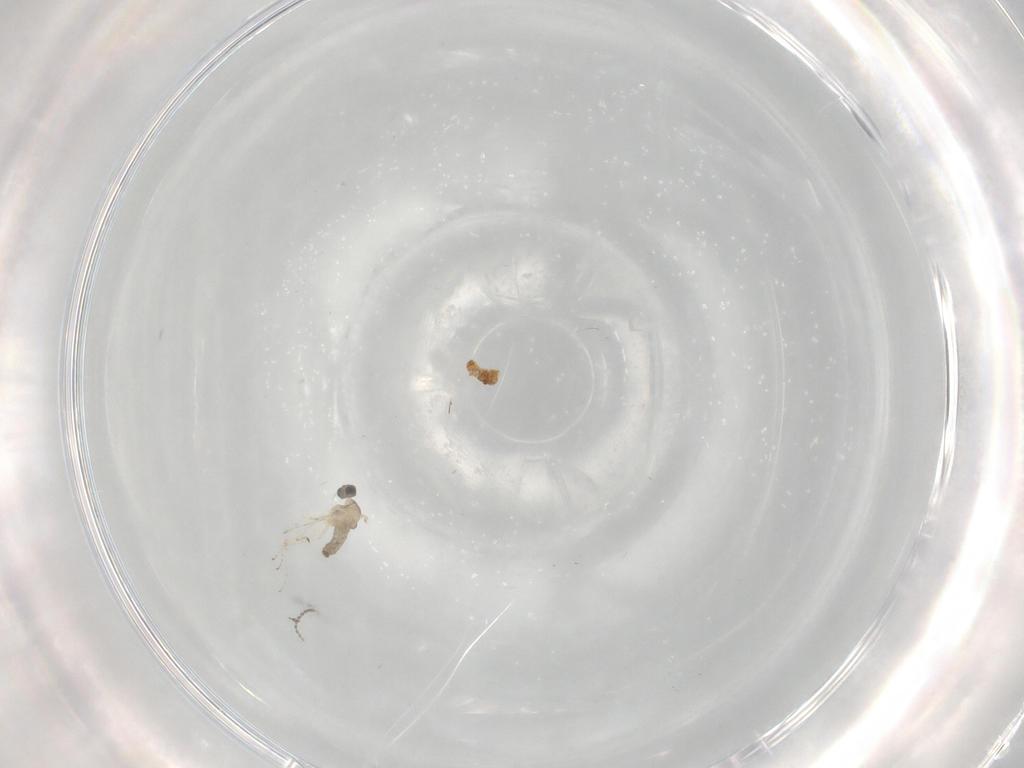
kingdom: Animalia
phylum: Arthropoda
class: Insecta
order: Diptera
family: Cecidomyiidae
